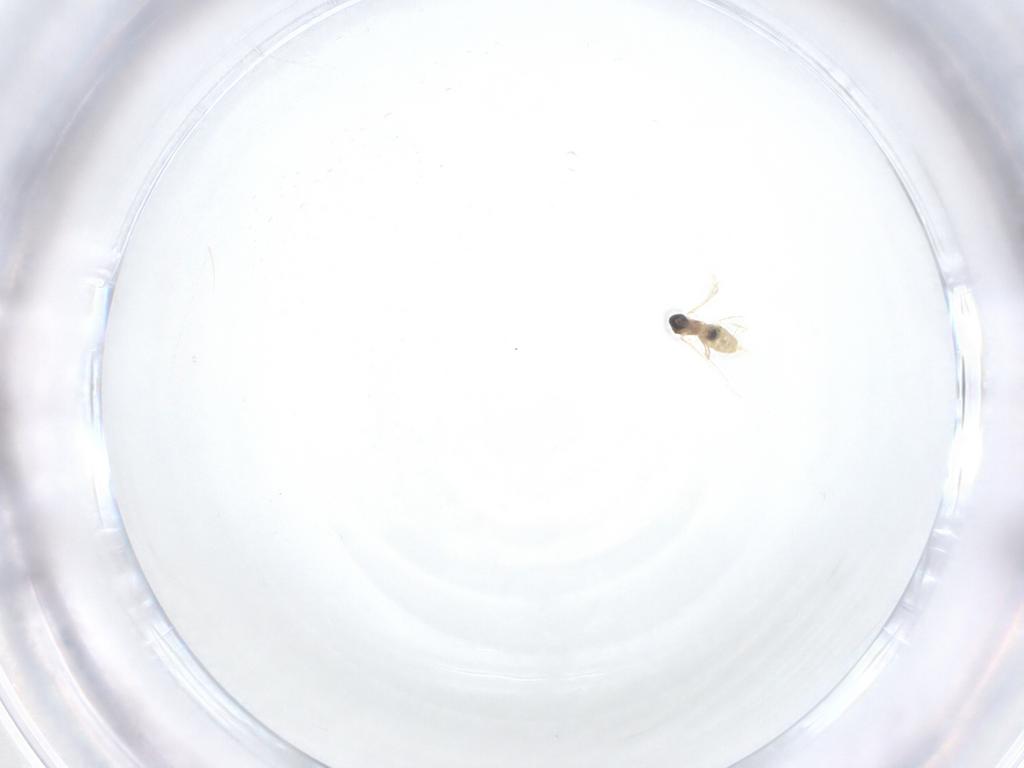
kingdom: Animalia
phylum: Arthropoda
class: Insecta
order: Diptera
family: Cecidomyiidae
